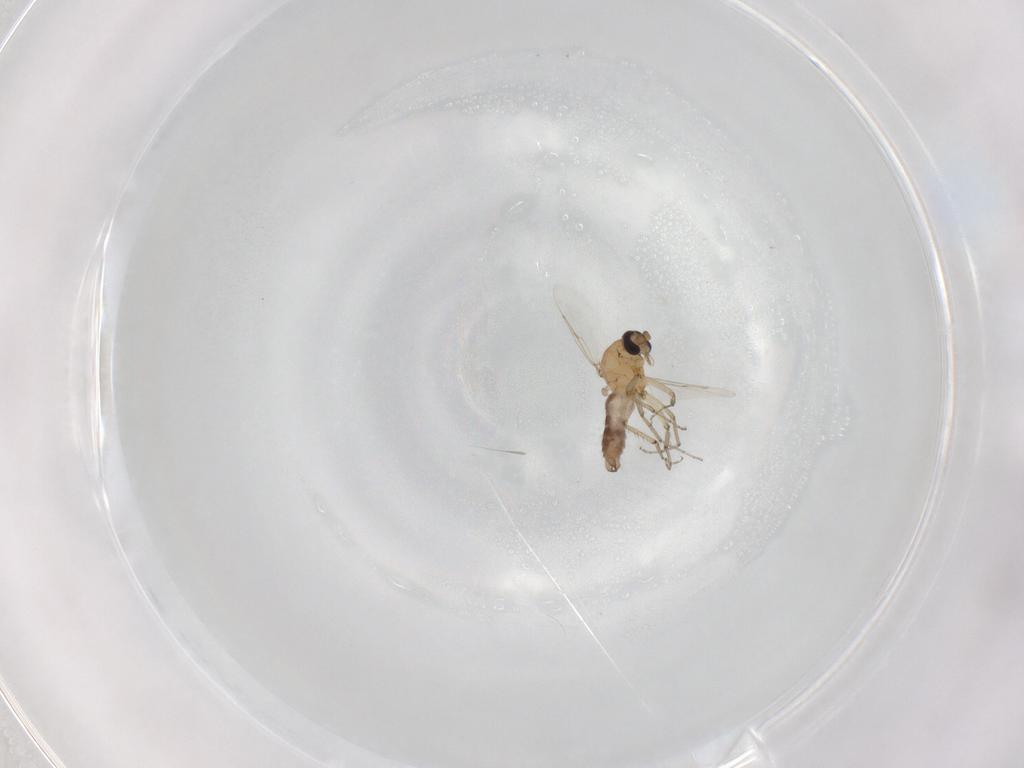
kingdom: Animalia
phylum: Arthropoda
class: Insecta
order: Diptera
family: Ceratopogonidae
